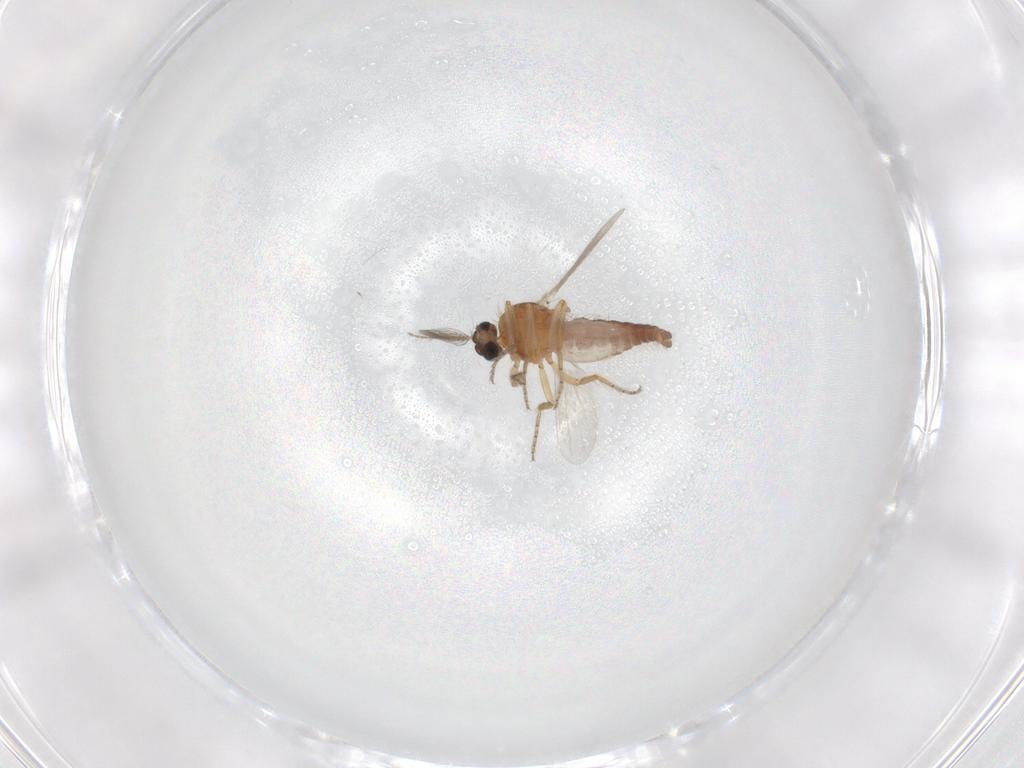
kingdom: Animalia
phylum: Arthropoda
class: Insecta
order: Diptera
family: Ceratopogonidae
